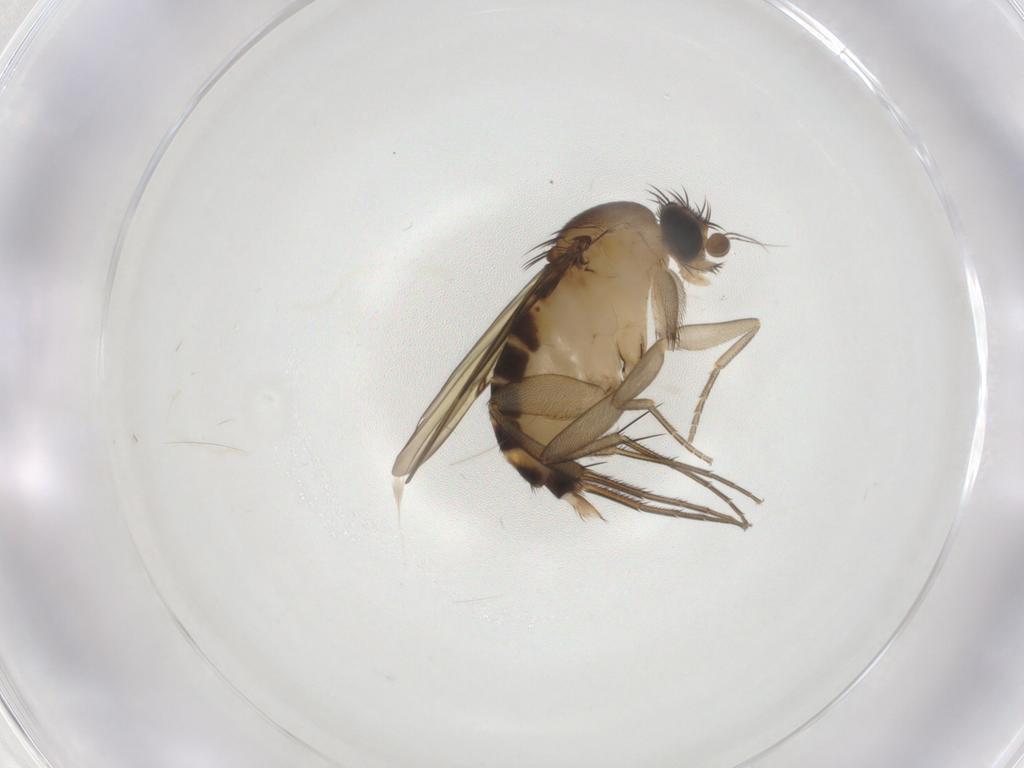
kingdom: Animalia
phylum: Arthropoda
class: Insecta
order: Diptera
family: Phoridae
